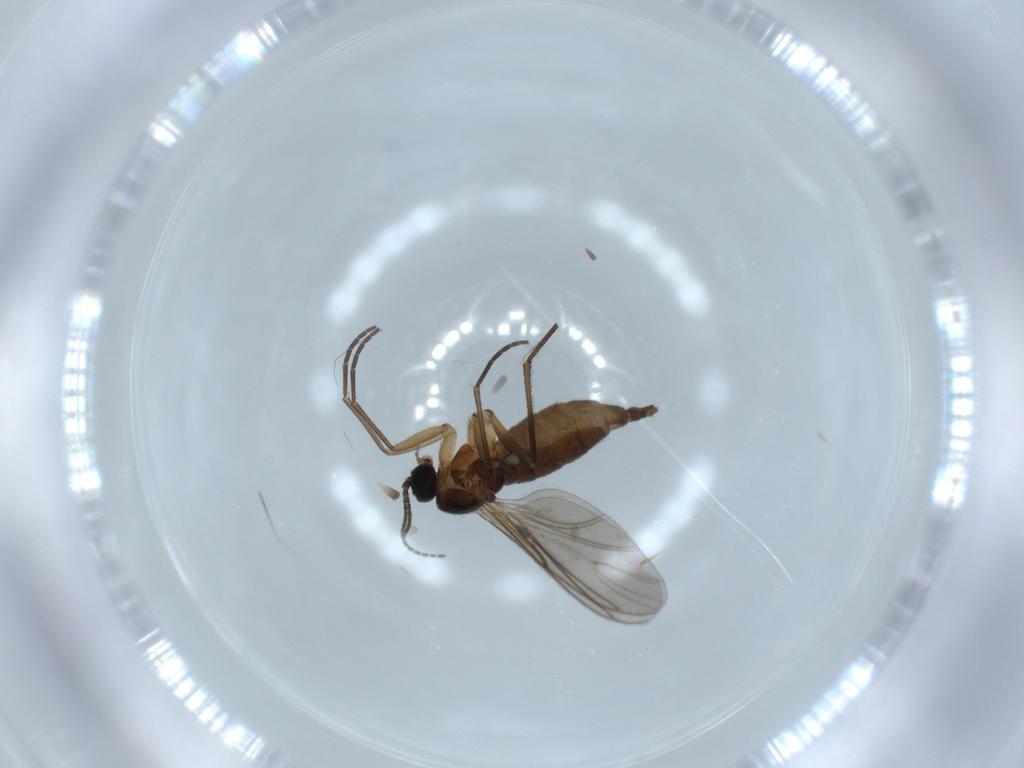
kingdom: Animalia
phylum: Arthropoda
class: Insecta
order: Diptera
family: Sciaridae
